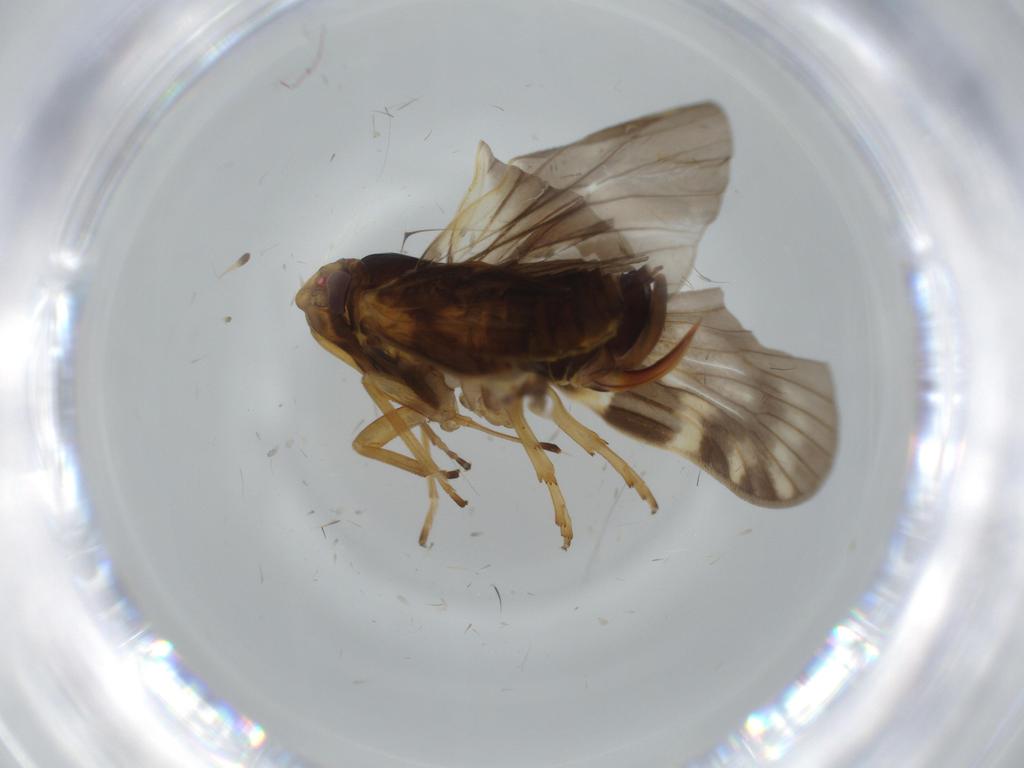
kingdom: Animalia
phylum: Arthropoda
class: Insecta
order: Hemiptera
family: Cixiidae
